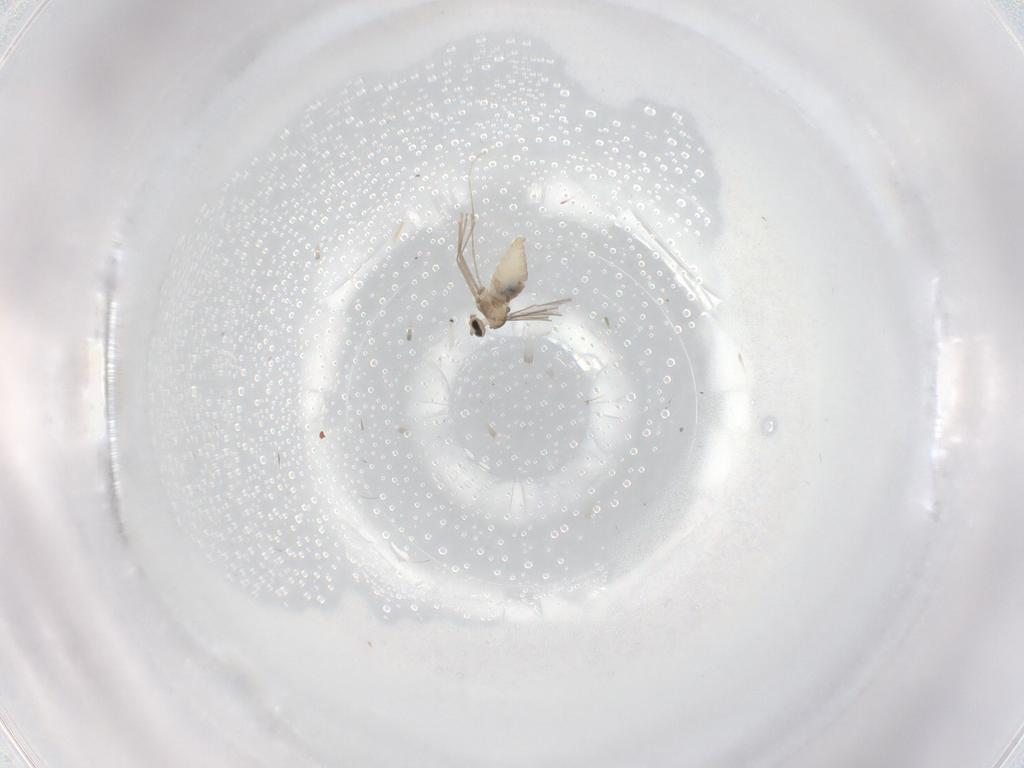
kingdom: Animalia
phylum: Arthropoda
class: Insecta
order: Diptera
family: Cecidomyiidae
